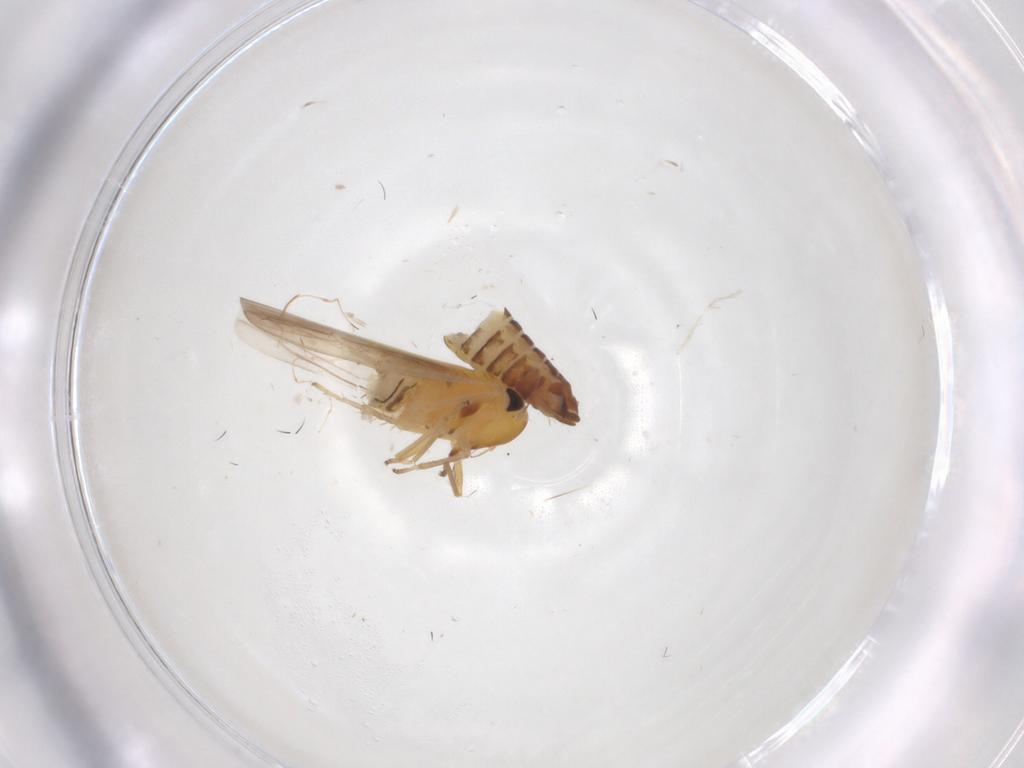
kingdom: Animalia
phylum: Arthropoda
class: Insecta
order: Hemiptera
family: Cicadellidae
